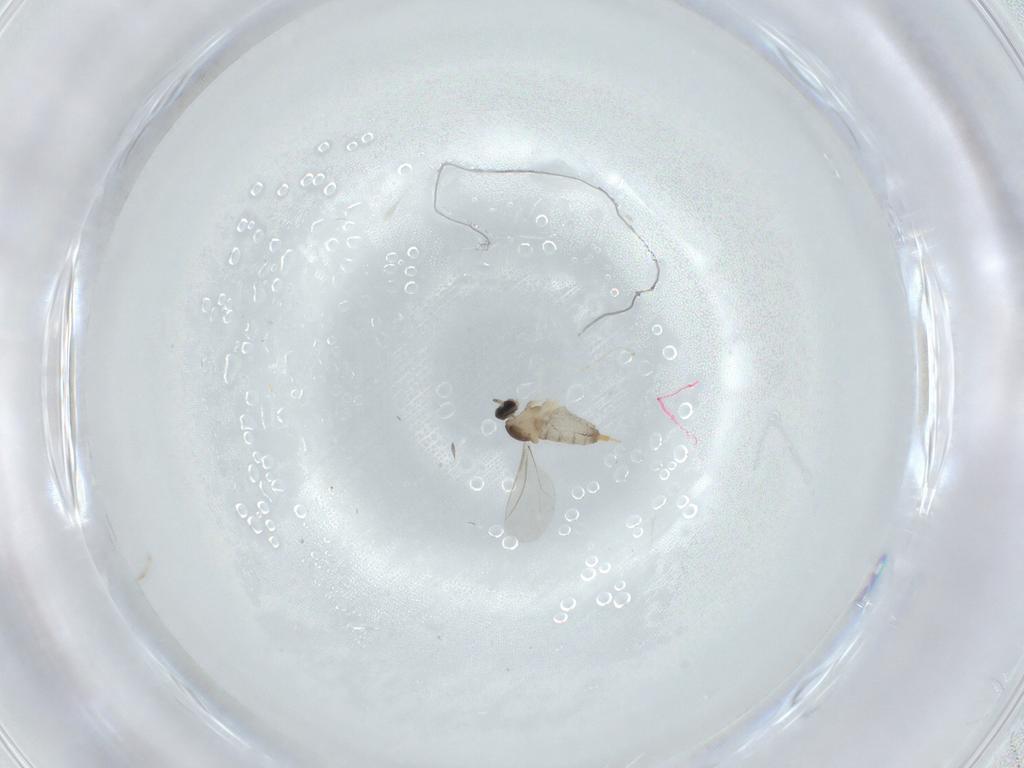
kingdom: Animalia
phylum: Arthropoda
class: Insecta
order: Diptera
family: Cecidomyiidae
